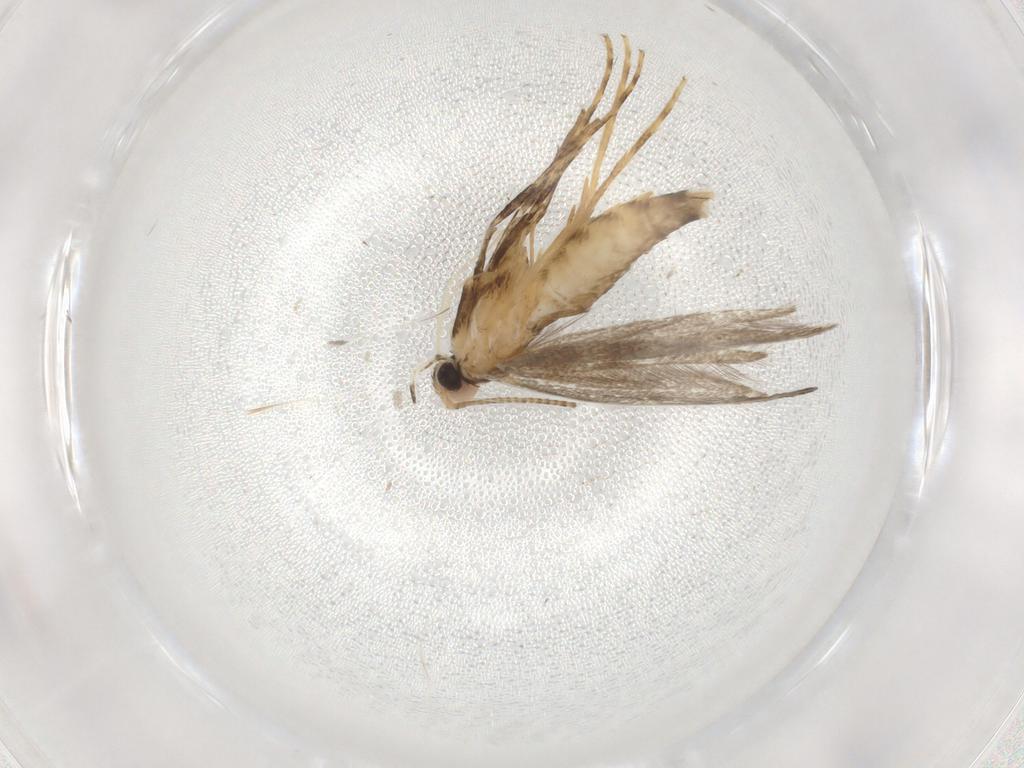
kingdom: Animalia
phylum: Arthropoda
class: Insecta
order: Lepidoptera
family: Gracillariidae
